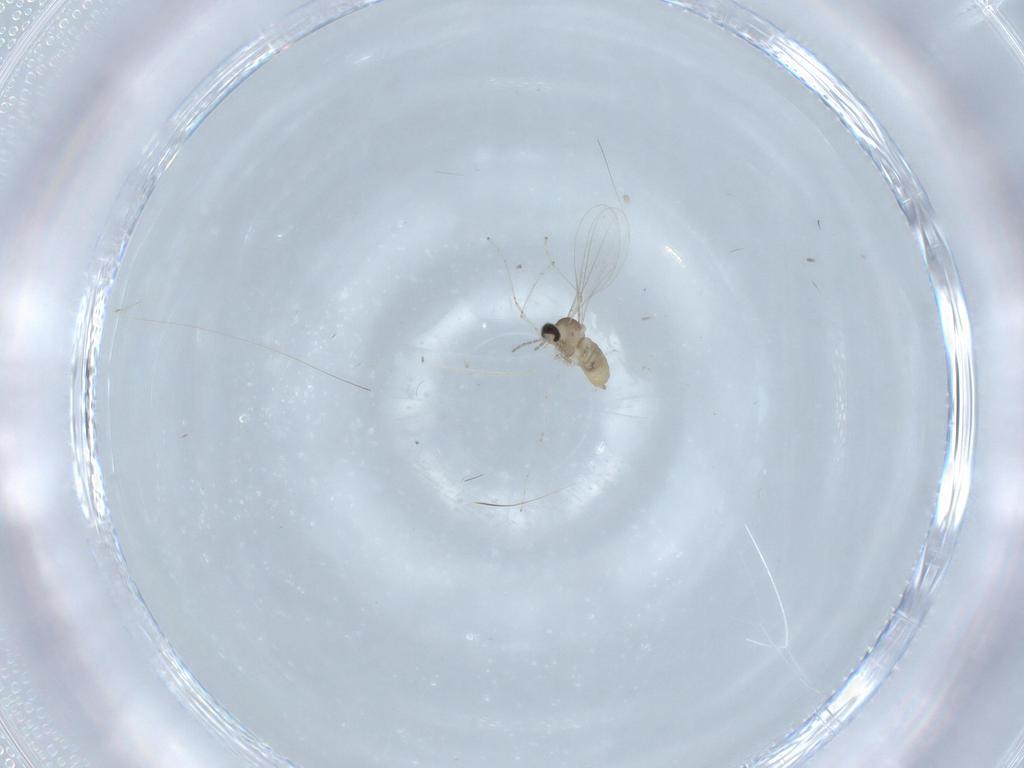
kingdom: Animalia
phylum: Arthropoda
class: Insecta
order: Diptera
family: Cecidomyiidae
